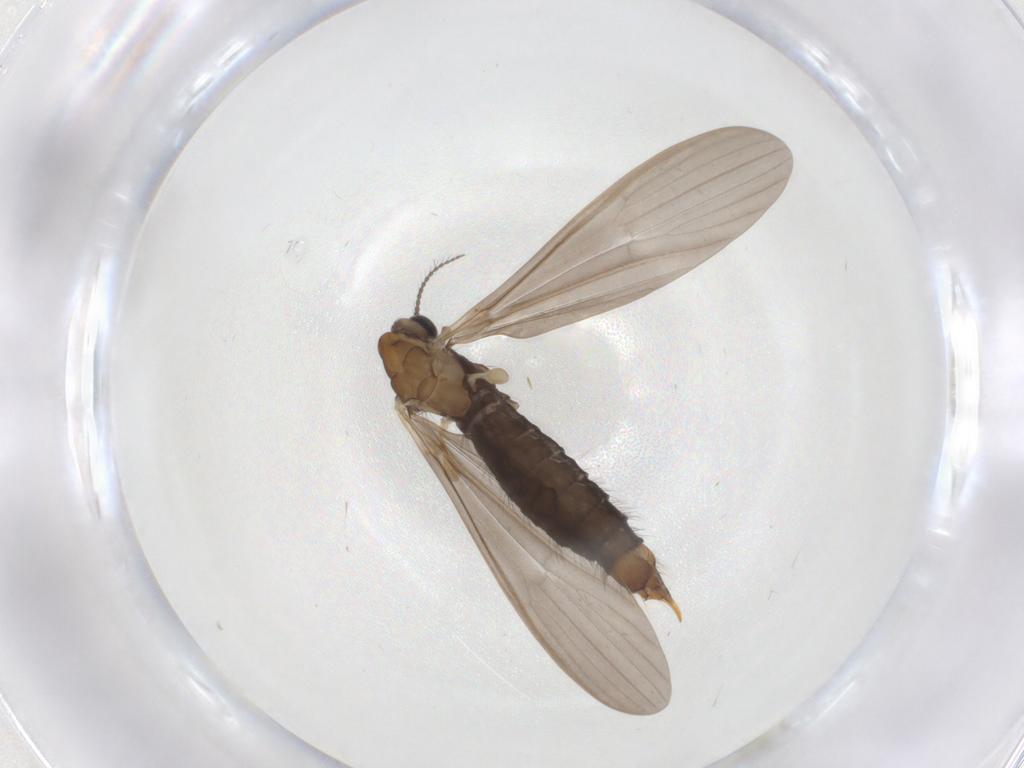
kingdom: Animalia
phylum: Arthropoda
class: Insecta
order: Diptera
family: Limoniidae
